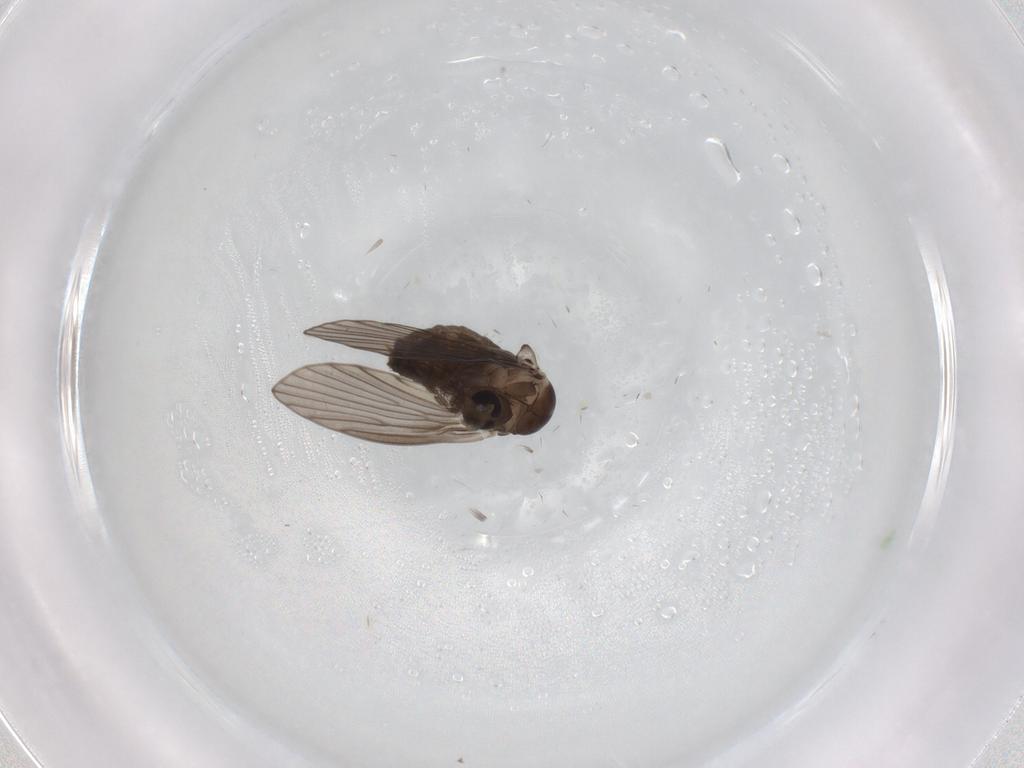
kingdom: Animalia
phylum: Arthropoda
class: Insecta
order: Diptera
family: Psychodidae
